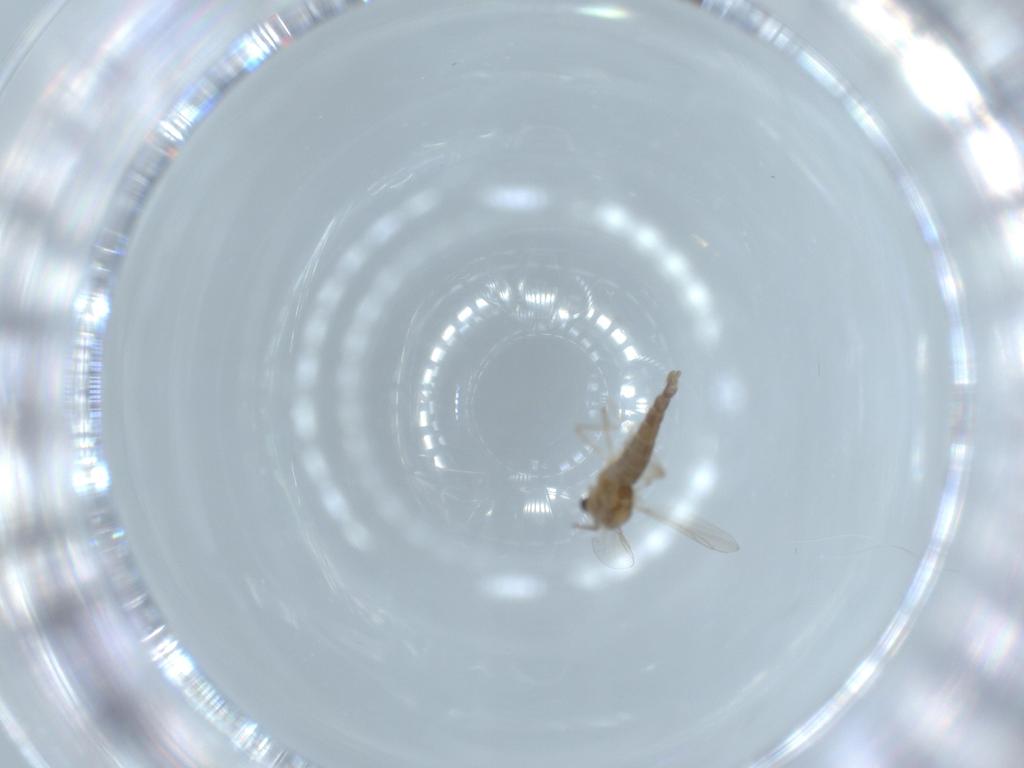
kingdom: Animalia
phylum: Arthropoda
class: Insecta
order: Diptera
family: Chironomidae
